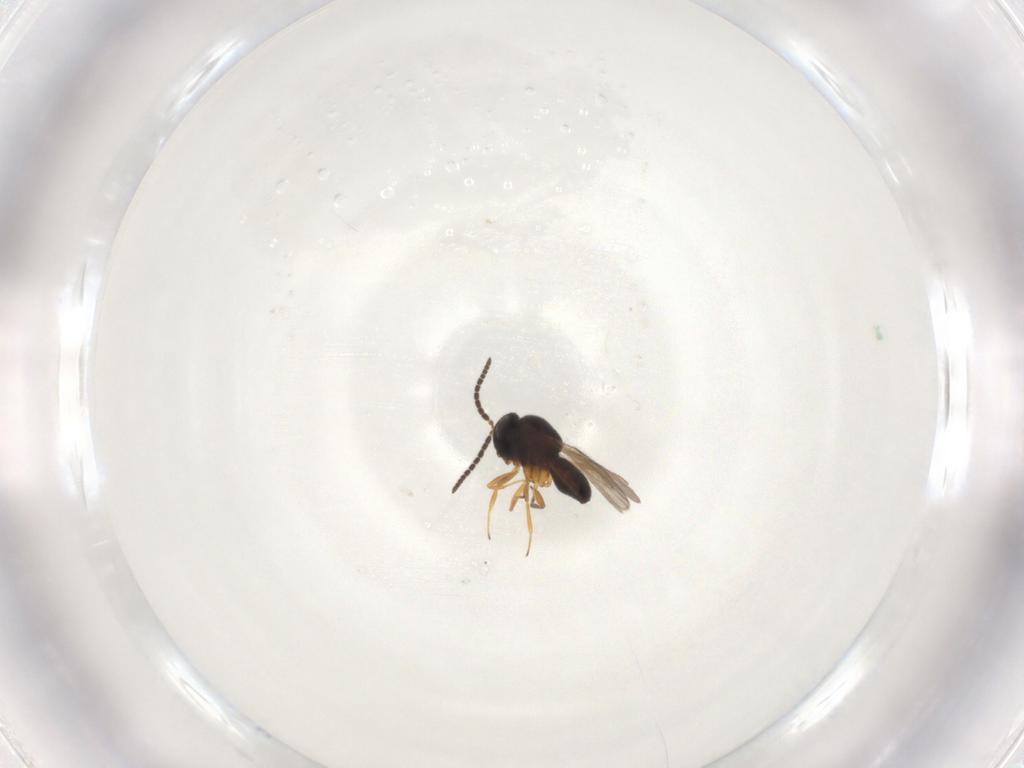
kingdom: Animalia
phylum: Arthropoda
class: Insecta
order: Hymenoptera
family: Scelionidae
